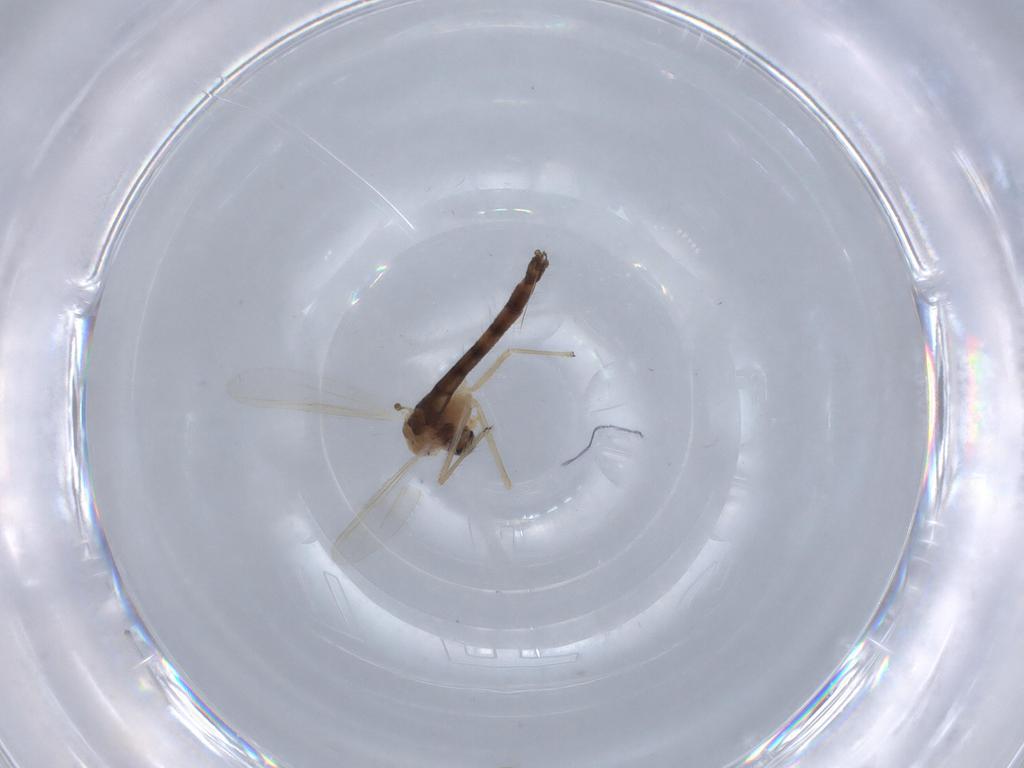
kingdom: Animalia
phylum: Arthropoda
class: Insecta
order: Diptera
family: Chironomidae
